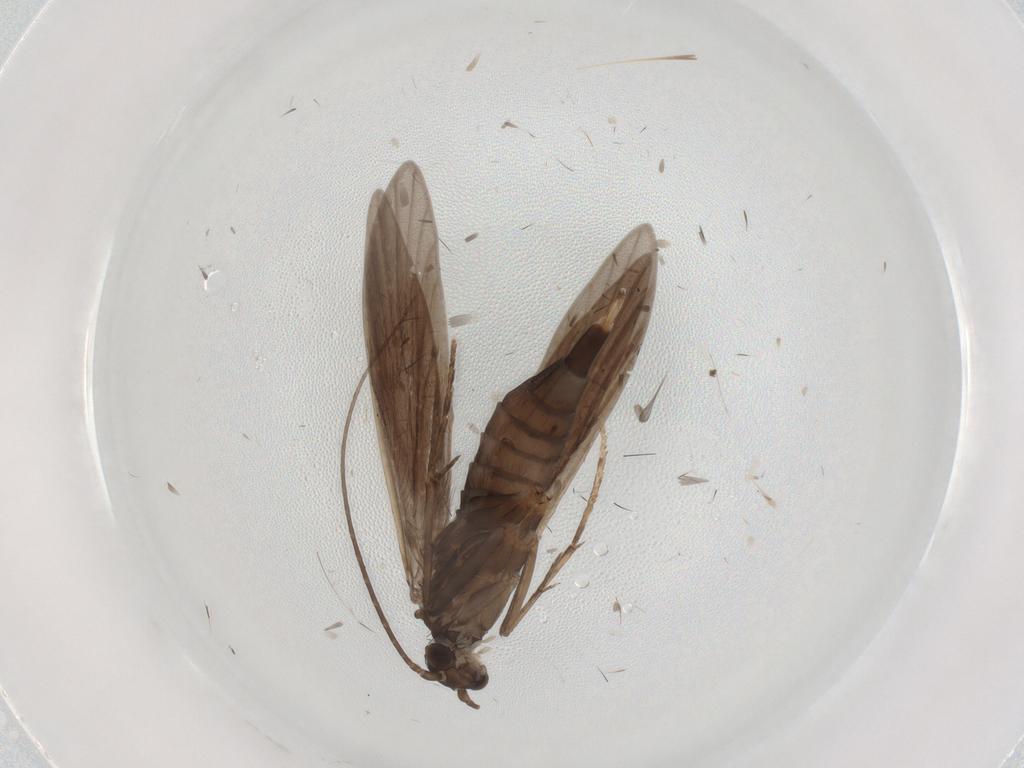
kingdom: Animalia
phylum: Arthropoda
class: Insecta
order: Trichoptera
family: Xiphocentronidae
